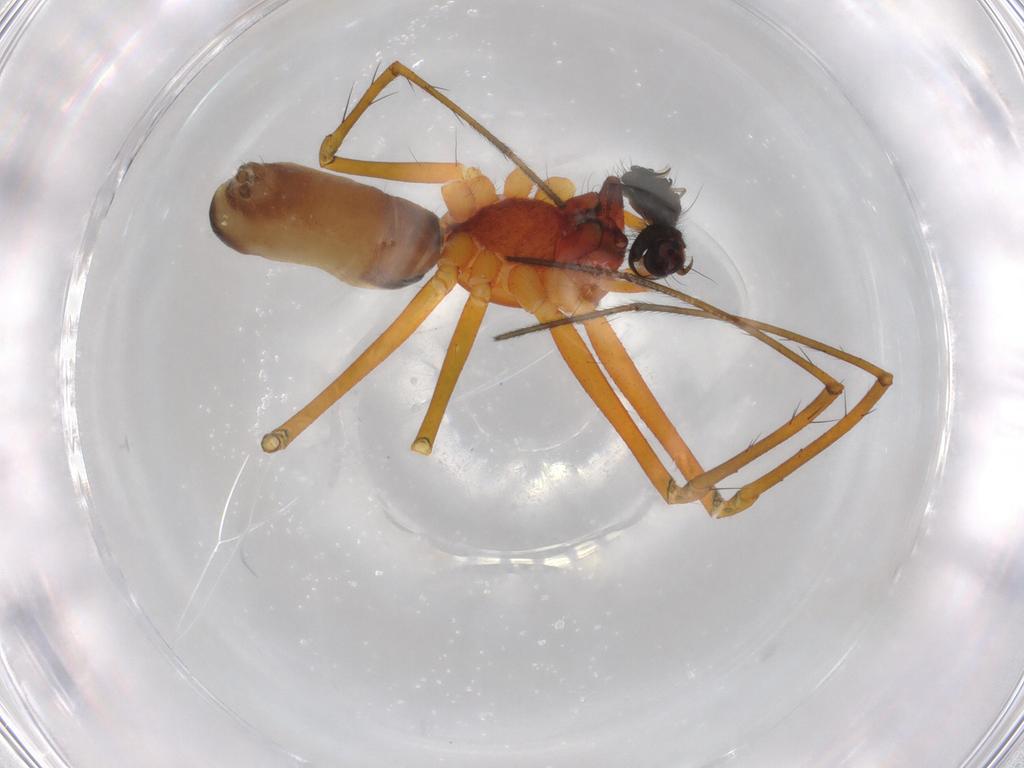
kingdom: Animalia
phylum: Arthropoda
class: Arachnida
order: Araneae
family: Linyphiidae
